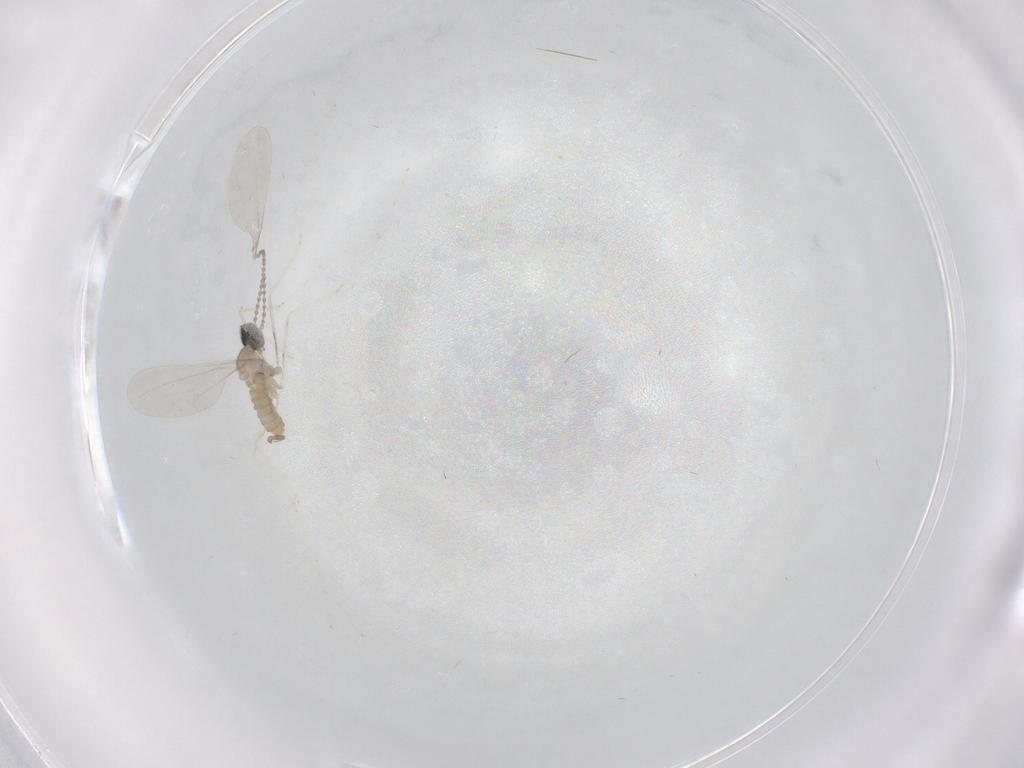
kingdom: Animalia
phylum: Arthropoda
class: Insecta
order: Diptera
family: Cecidomyiidae
